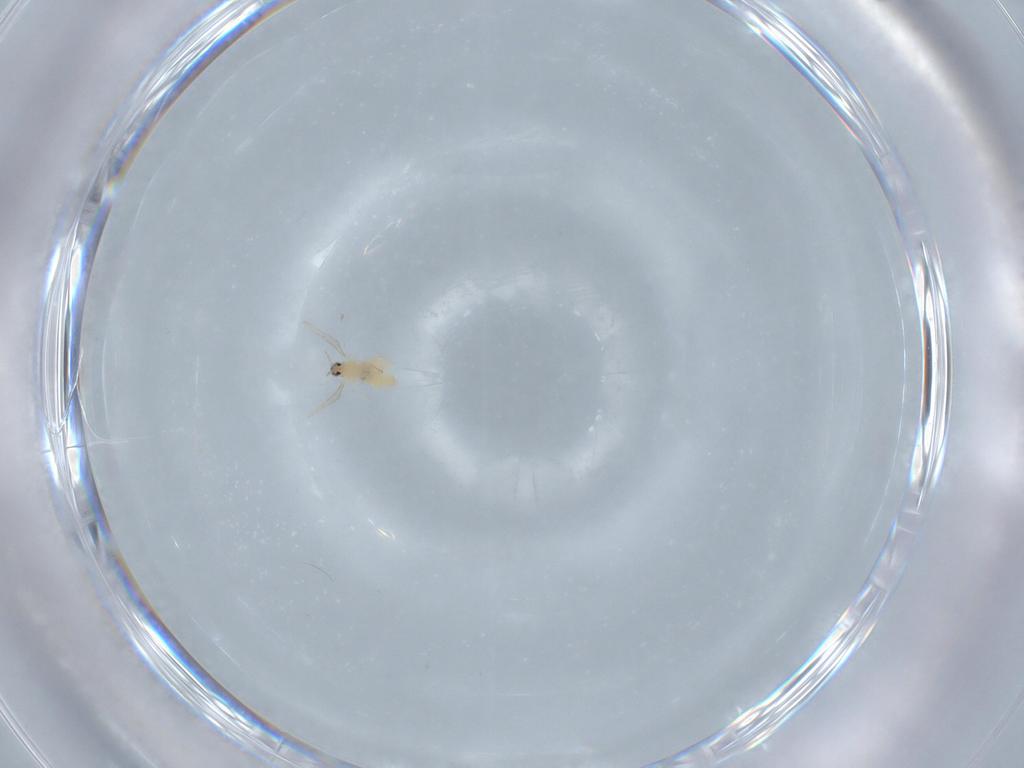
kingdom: Animalia
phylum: Arthropoda
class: Insecta
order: Diptera
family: Cecidomyiidae
